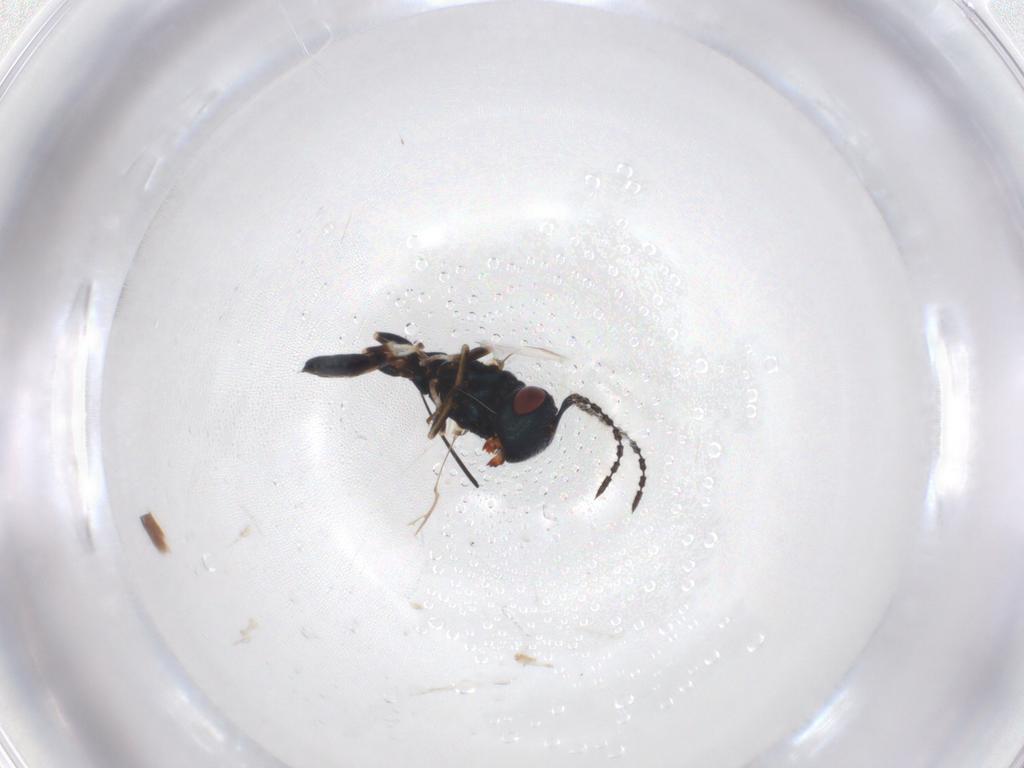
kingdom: Animalia
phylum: Arthropoda
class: Insecta
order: Hymenoptera
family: Pteromalidae
